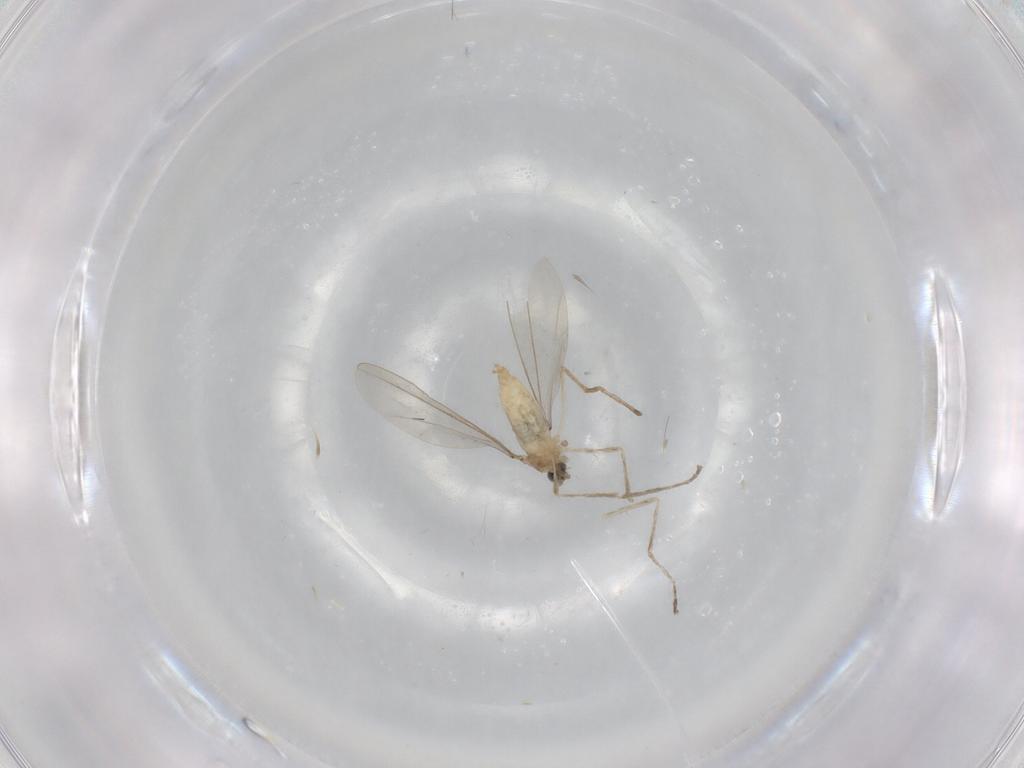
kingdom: Animalia
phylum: Arthropoda
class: Insecta
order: Diptera
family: Cecidomyiidae
